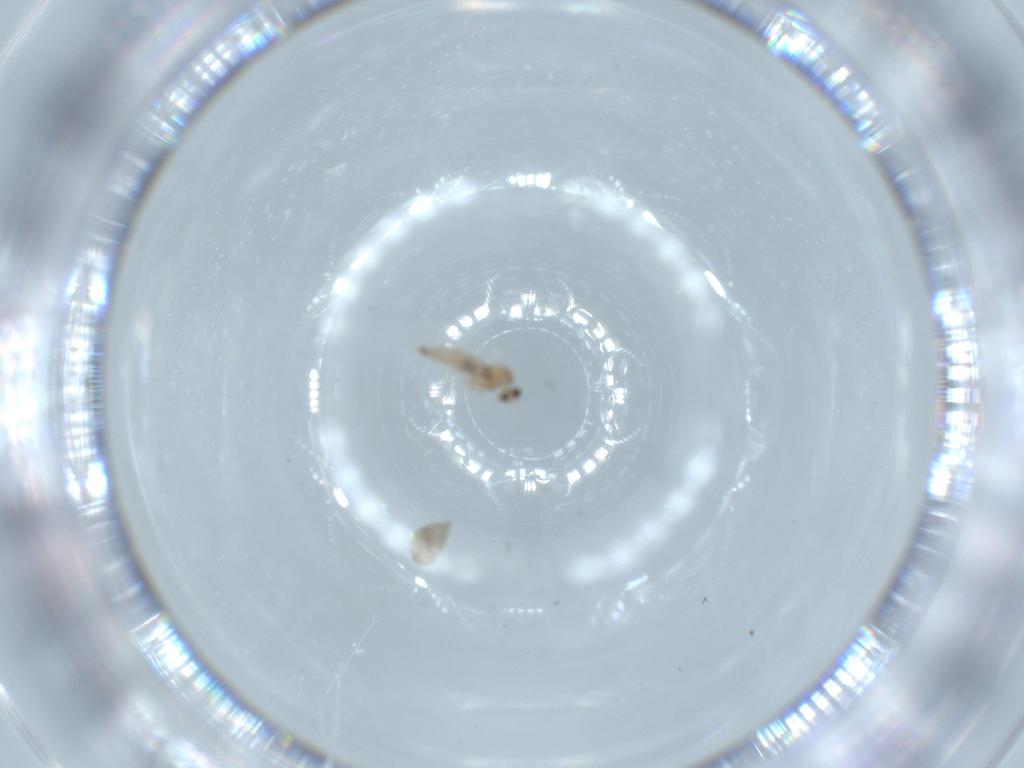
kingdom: Animalia
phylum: Arthropoda
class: Insecta
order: Diptera
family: Cecidomyiidae
